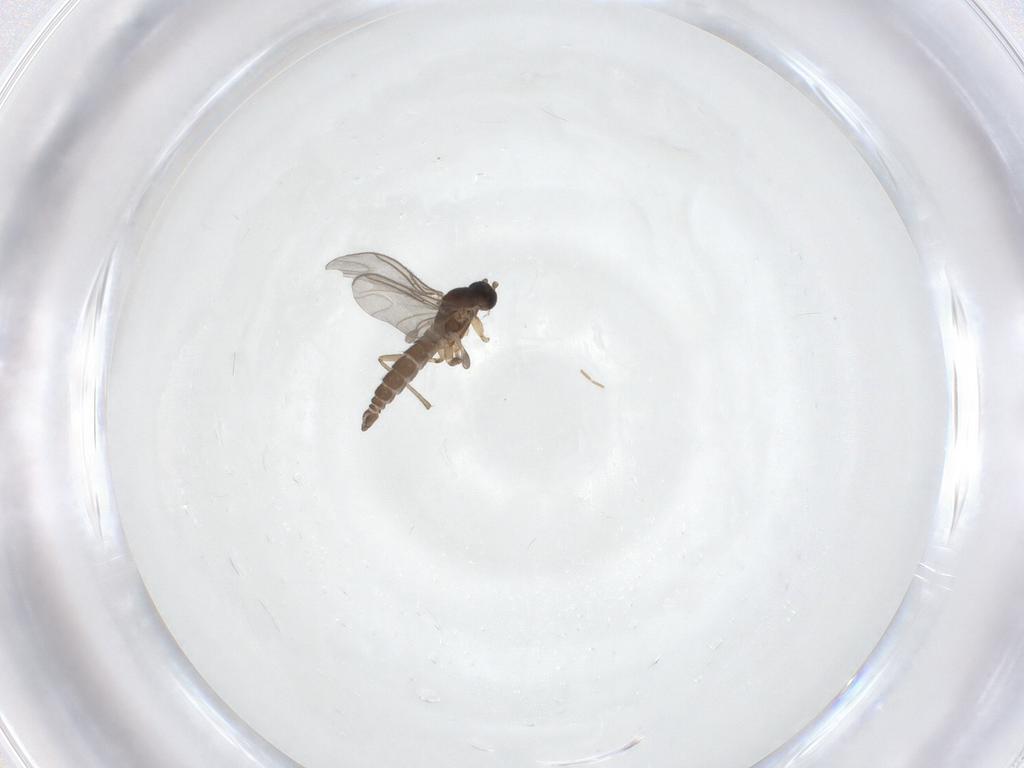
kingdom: Animalia
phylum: Arthropoda
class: Insecta
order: Diptera
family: Sciaridae
